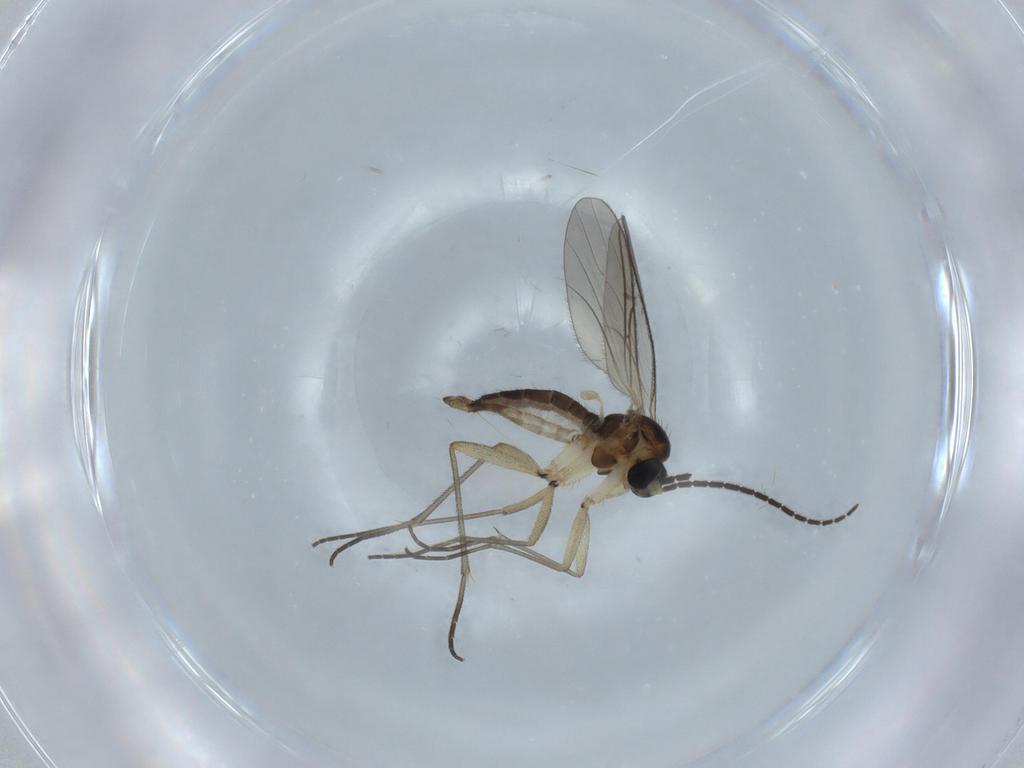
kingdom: Animalia
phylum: Arthropoda
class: Insecta
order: Diptera
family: Sciaridae
